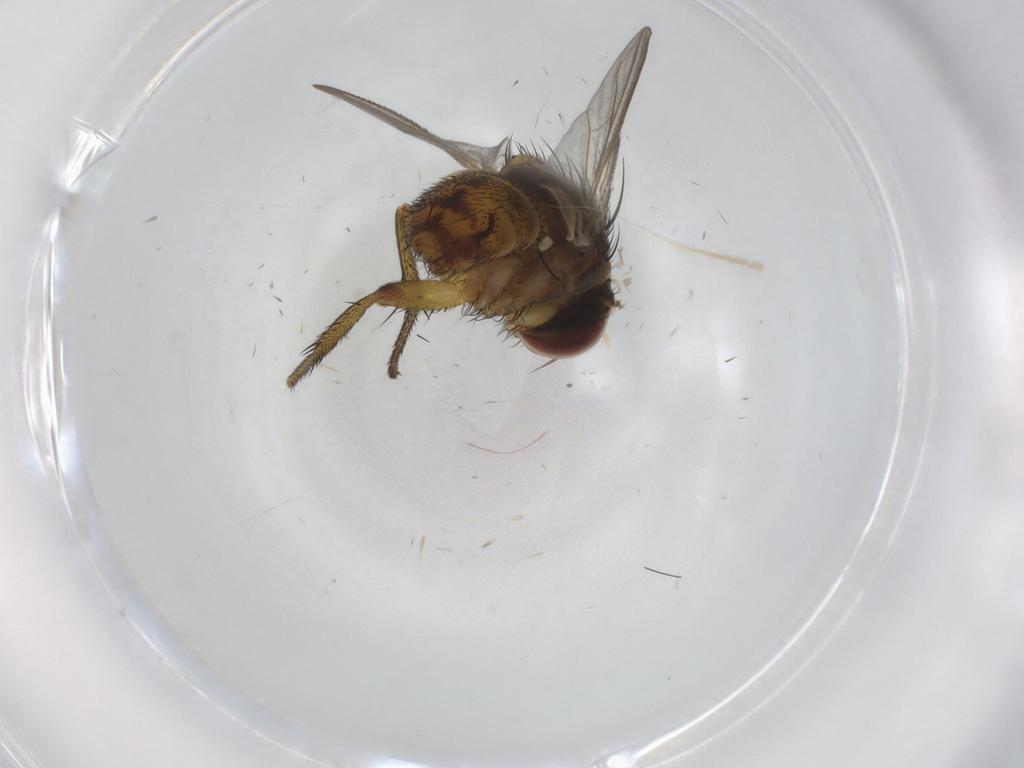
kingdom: Animalia
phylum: Arthropoda
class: Insecta
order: Diptera
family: Tachinidae
